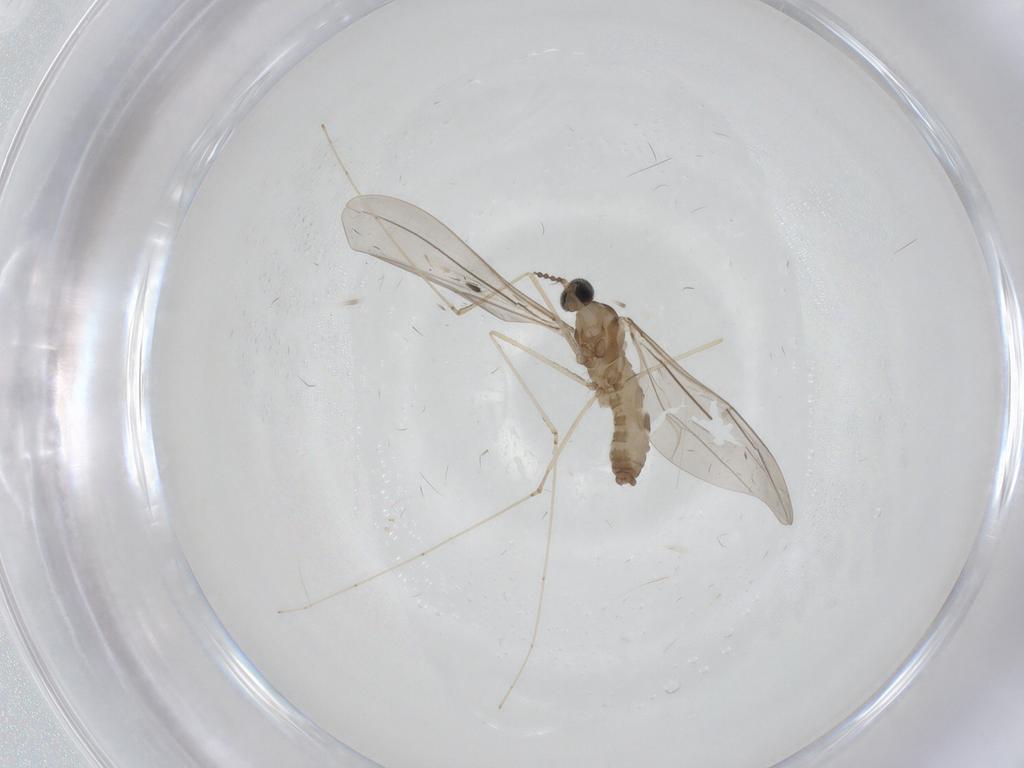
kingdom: Animalia
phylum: Arthropoda
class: Insecta
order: Diptera
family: Cecidomyiidae
